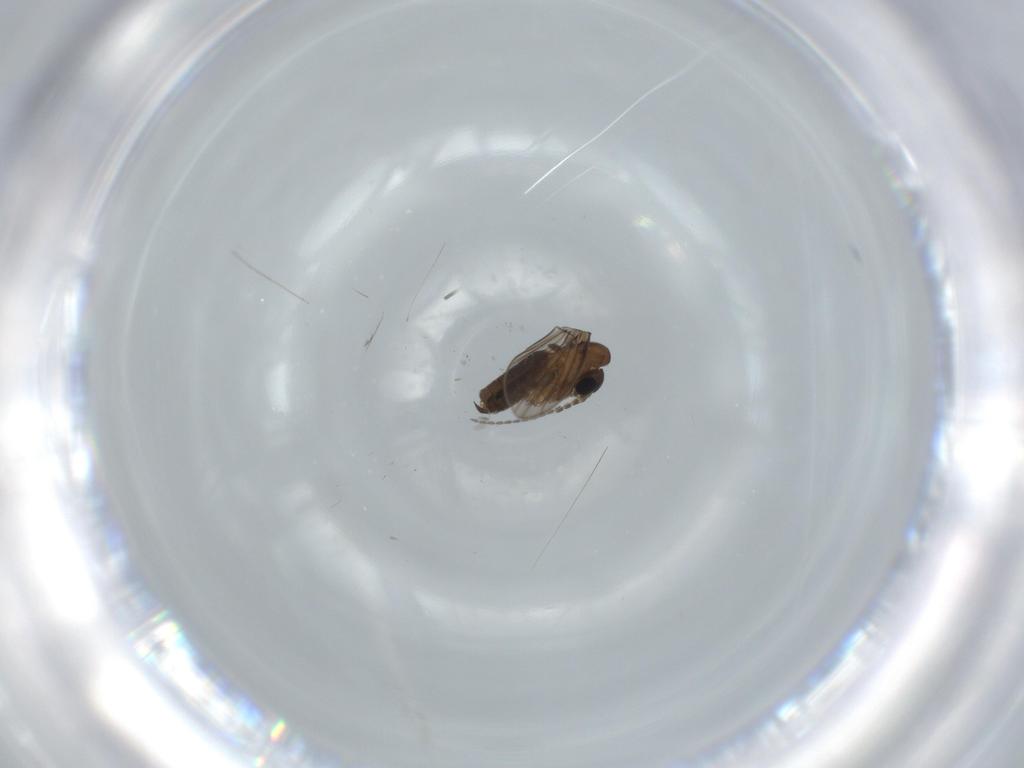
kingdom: Animalia
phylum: Arthropoda
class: Insecta
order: Diptera
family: Psychodidae
